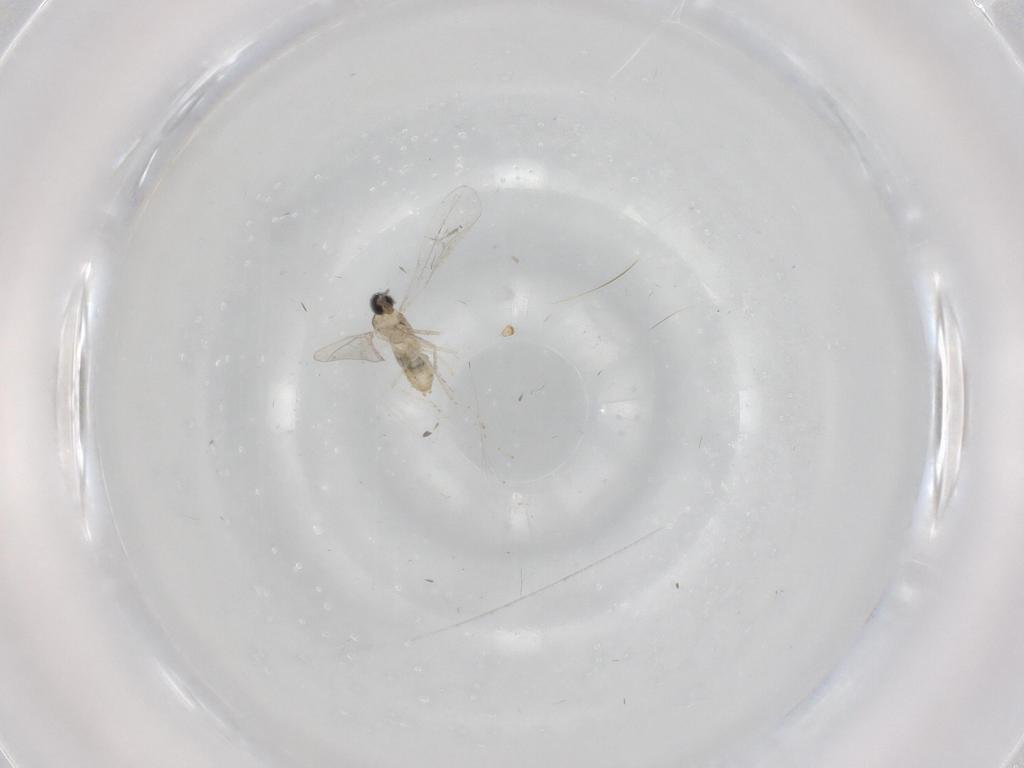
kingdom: Animalia
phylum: Arthropoda
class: Insecta
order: Diptera
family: Cecidomyiidae
